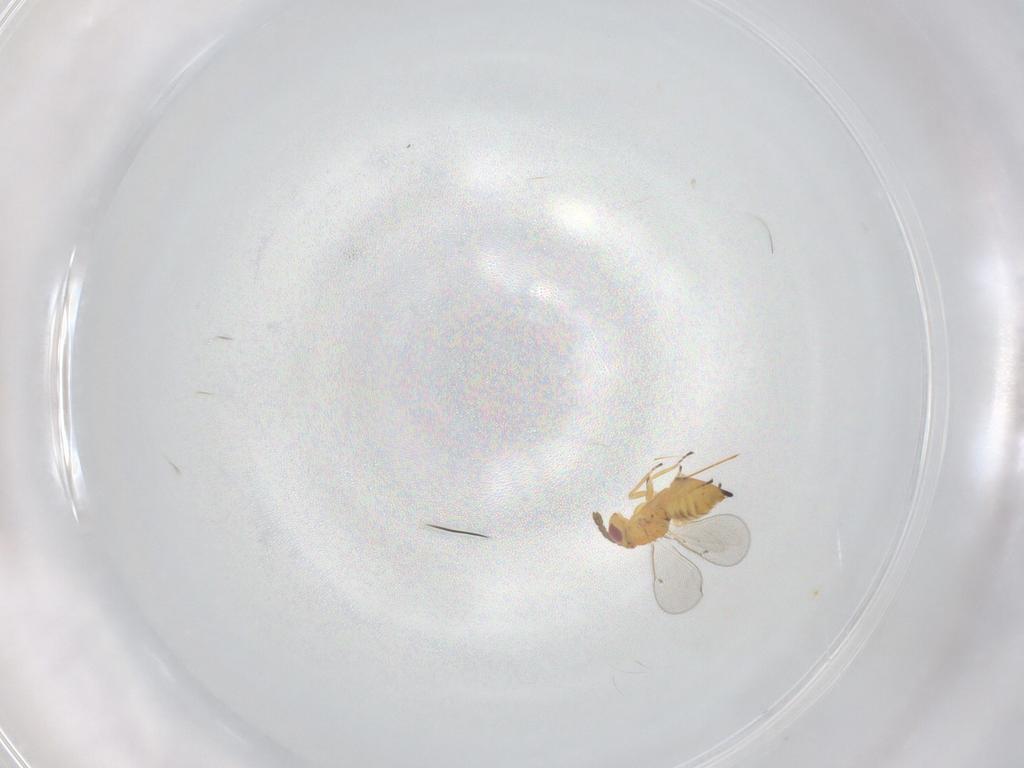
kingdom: Animalia
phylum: Arthropoda
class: Insecta
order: Hymenoptera
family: Eulophidae
